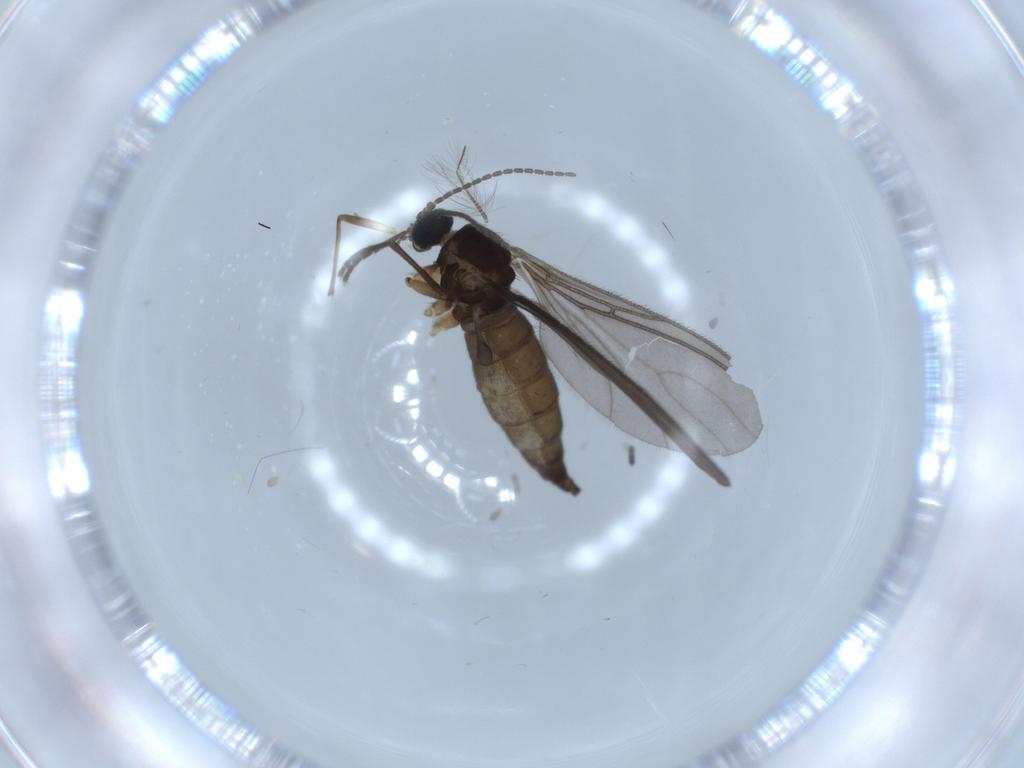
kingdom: Animalia
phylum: Arthropoda
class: Insecta
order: Diptera
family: Sciaridae
